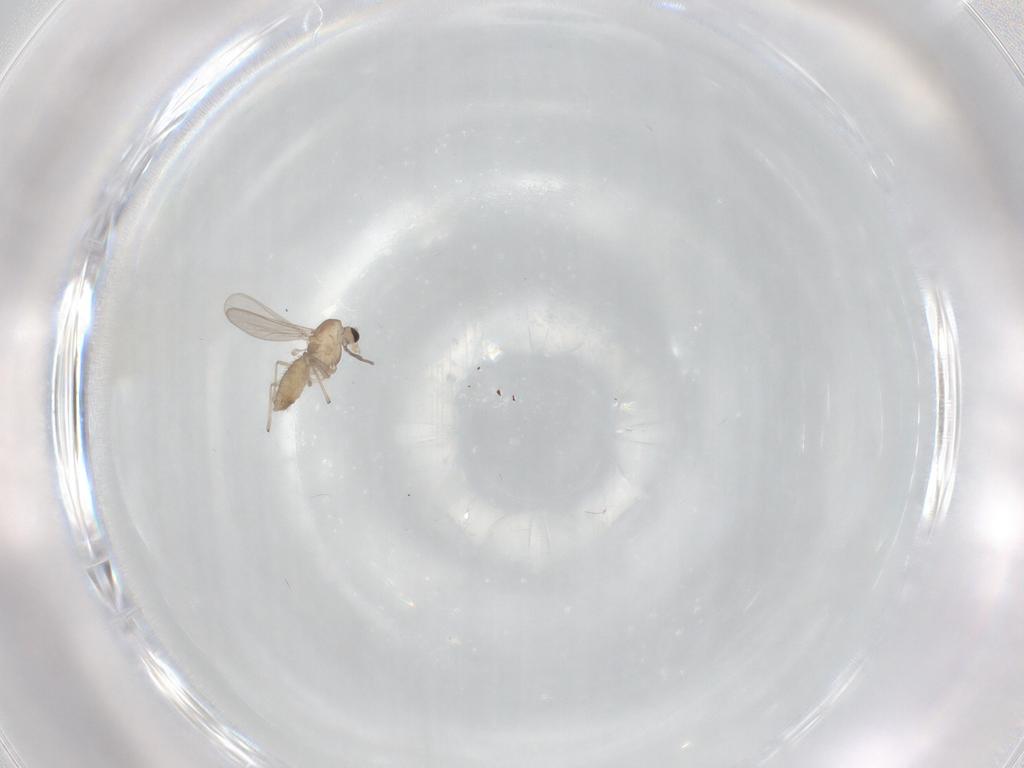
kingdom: Animalia
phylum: Arthropoda
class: Insecta
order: Diptera
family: Chironomidae
